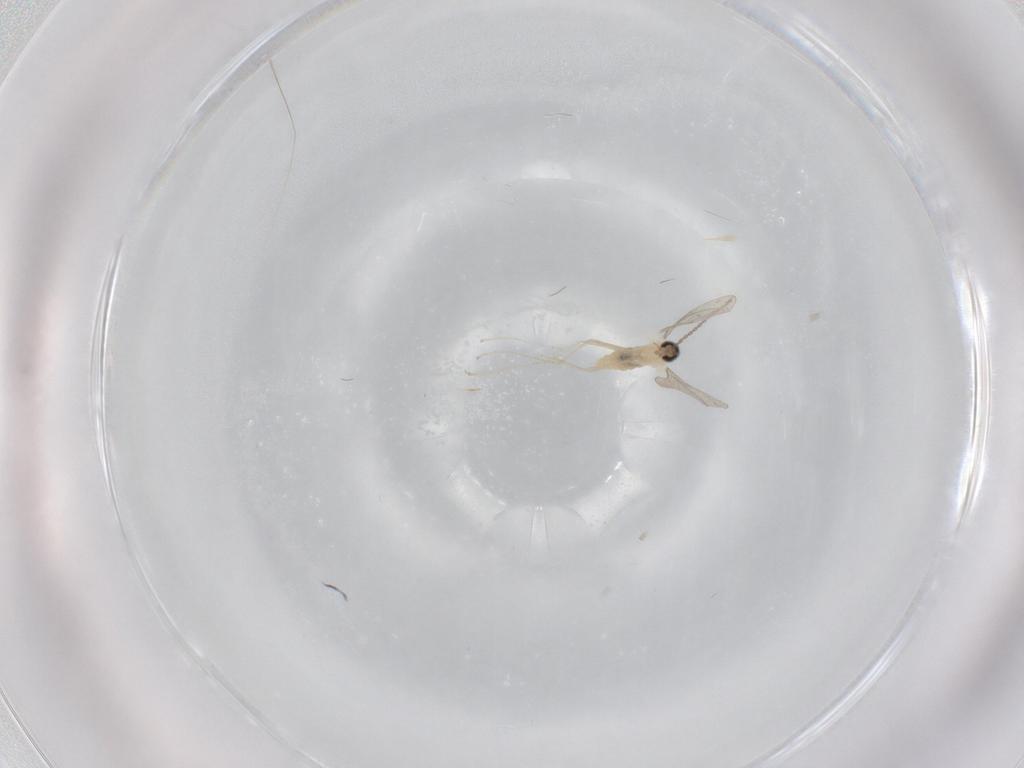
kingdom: Animalia
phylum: Arthropoda
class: Insecta
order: Diptera
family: Cecidomyiidae
